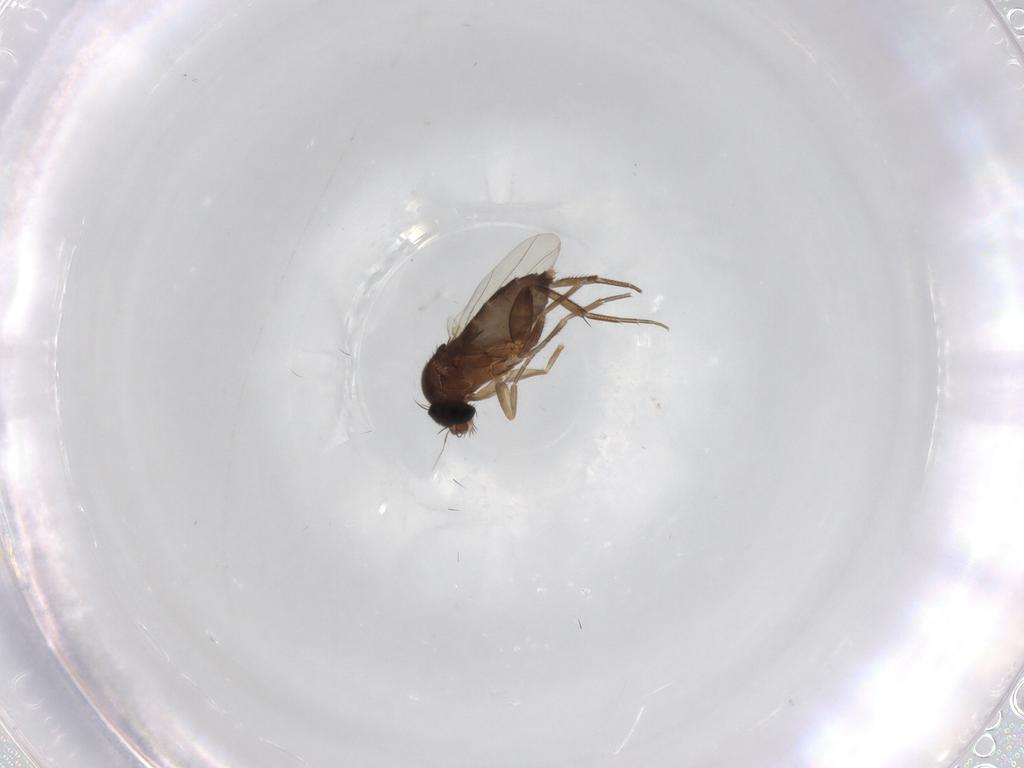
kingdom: Animalia
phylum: Arthropoda
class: Insecta
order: Diptera
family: Phoridae
